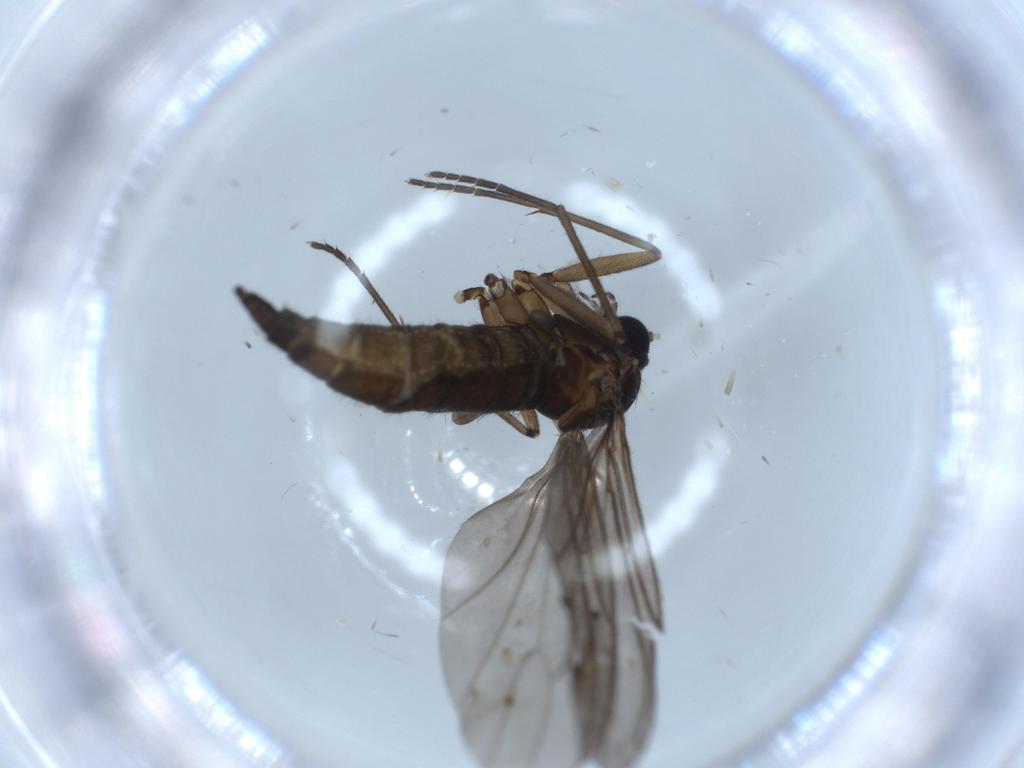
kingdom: Animalia
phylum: Arthropoda
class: Insecta
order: Diptera
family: Sciaridae
